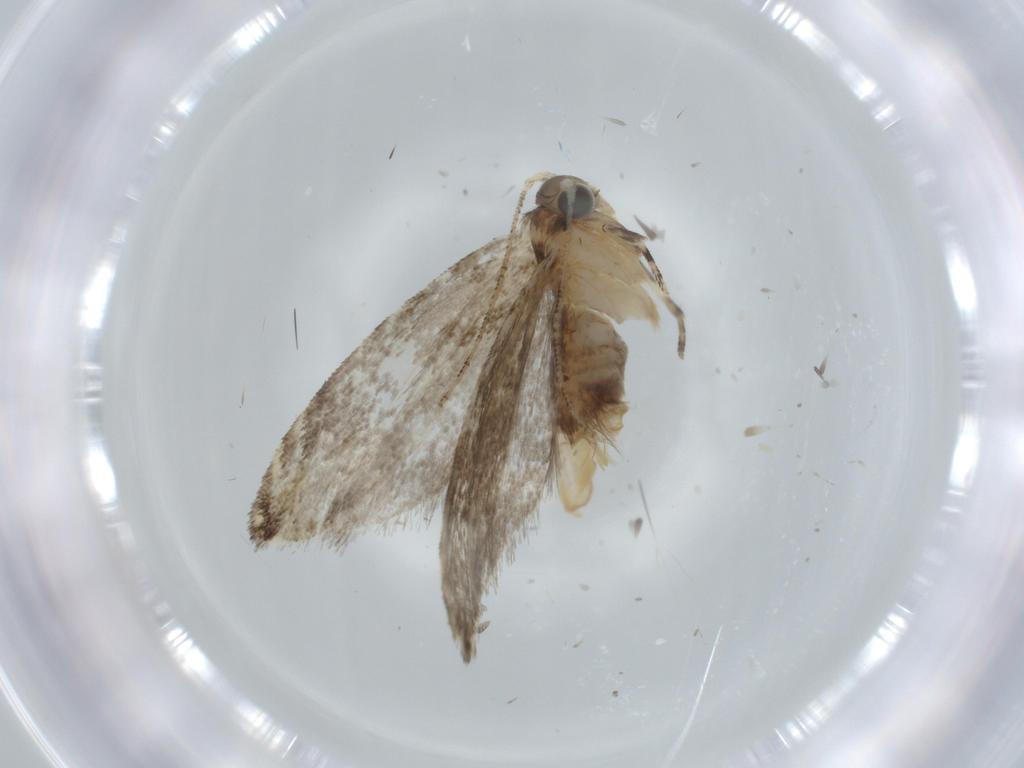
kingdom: Animalia
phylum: Arthropoda
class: Insecta
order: Lepidoptera
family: Tineidae
